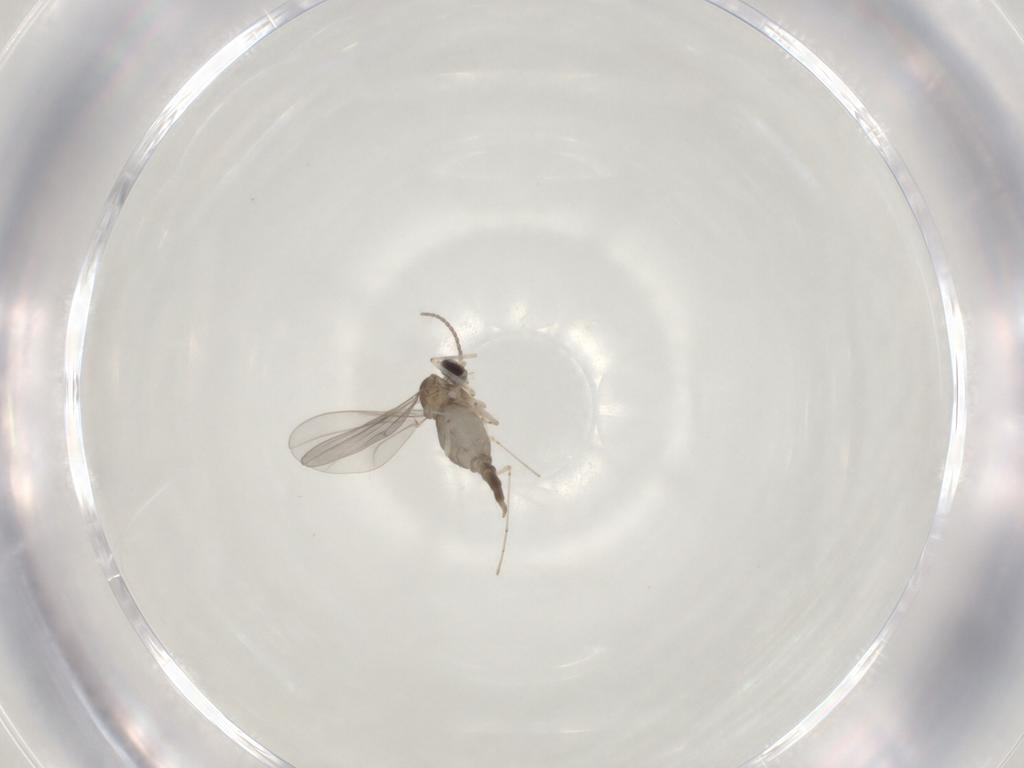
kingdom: Animalia
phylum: Arthropoda
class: Insecta
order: Diptera
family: Cecidomyiidae
